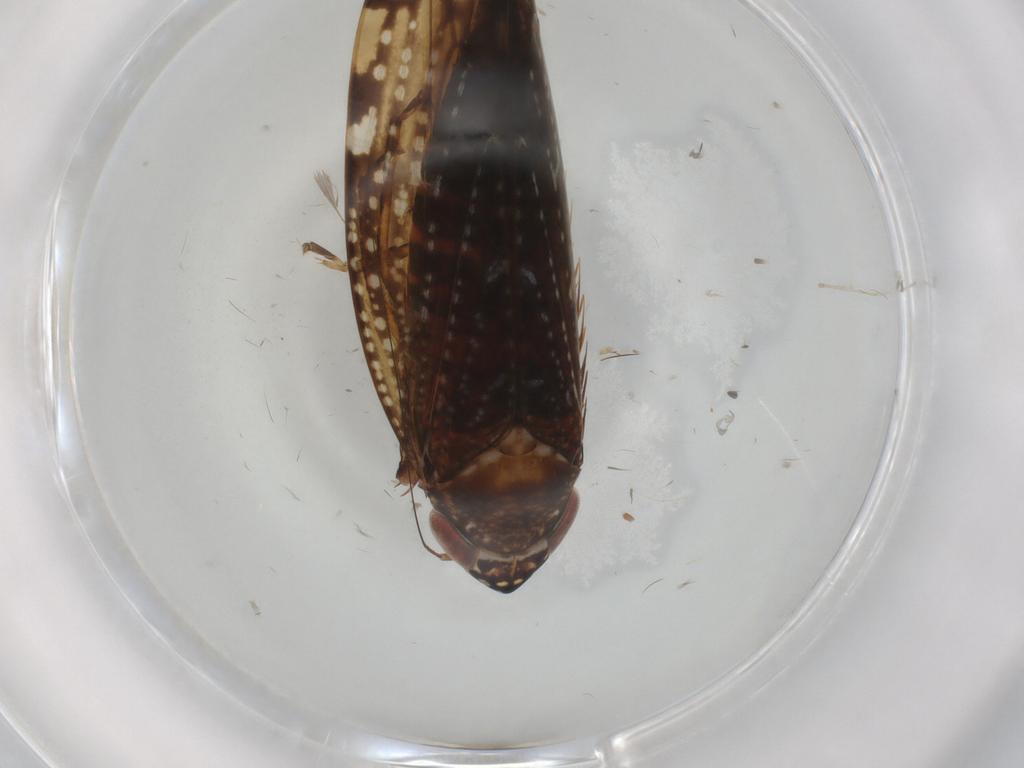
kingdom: Animalia
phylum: Arthropoda
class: Insecta
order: Hemiptera
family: Cicadellidae
